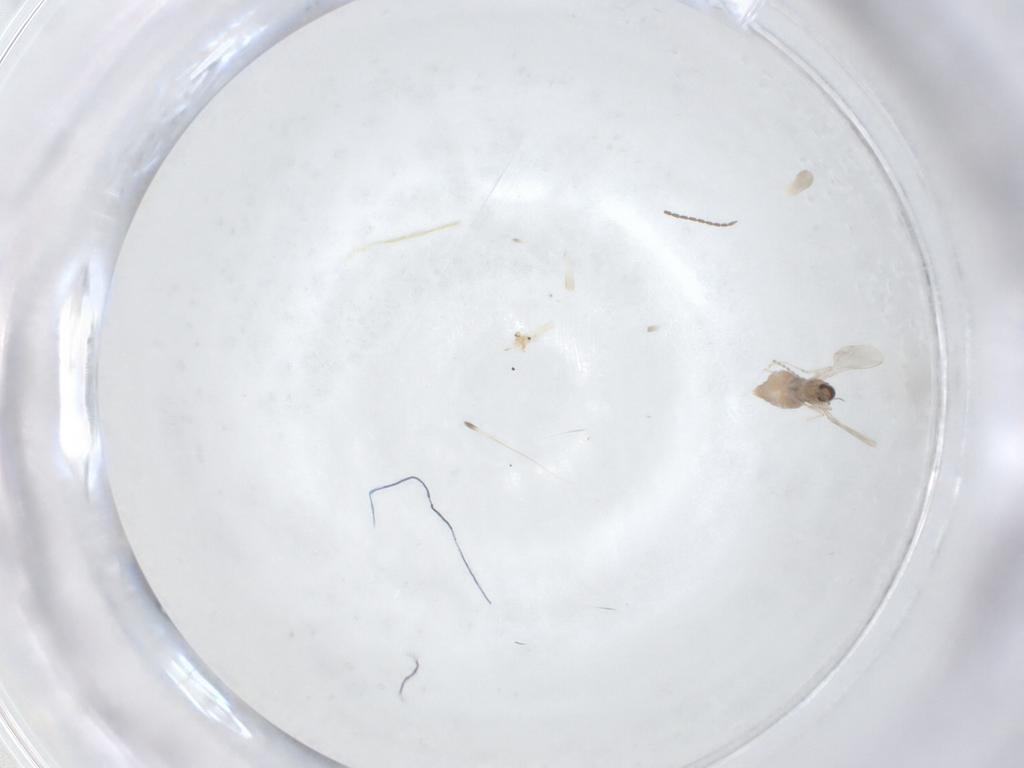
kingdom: Animalia
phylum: Arthropoda
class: Insecta
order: Diptera
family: Cecidomyiidae
